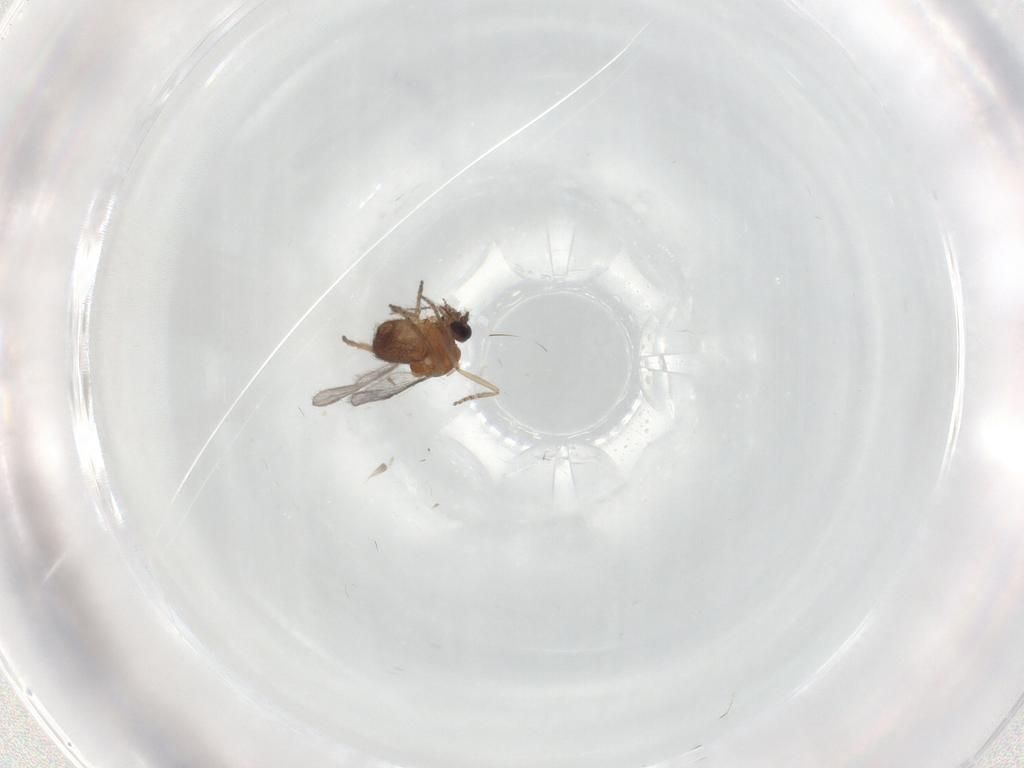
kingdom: Animalia
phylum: Arthropoda
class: Insecta
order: Diptera
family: Ceratopogonidae
